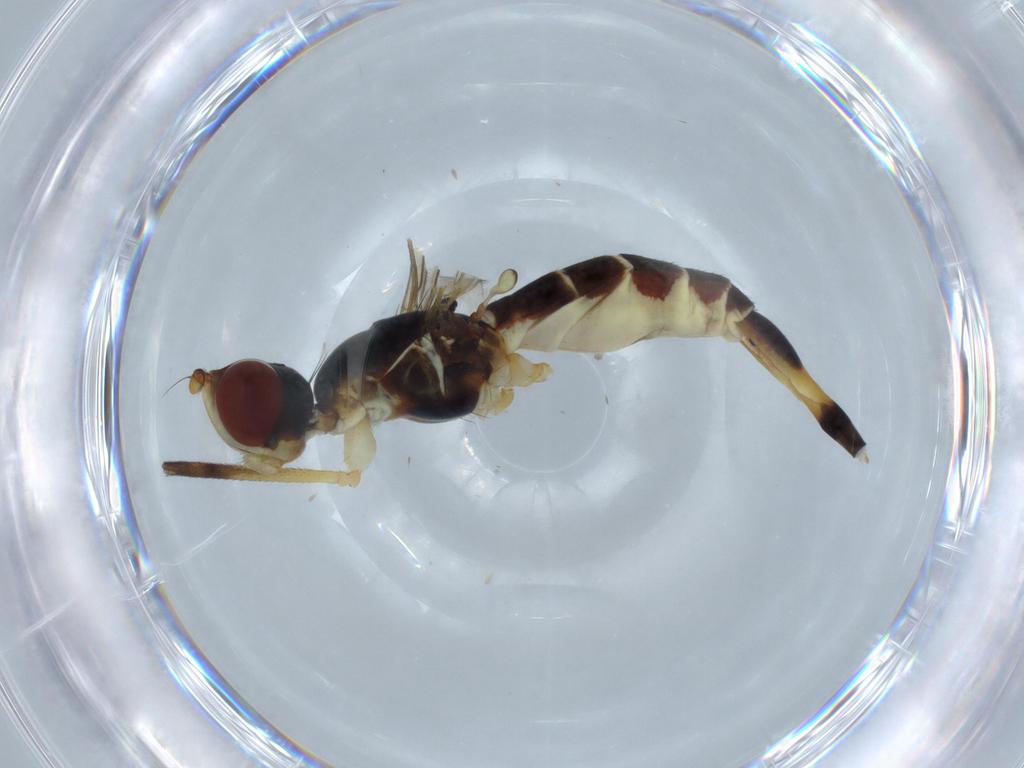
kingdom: Animalia
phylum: Arthropoda
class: Insecta
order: Diptera
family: Micropezidae
